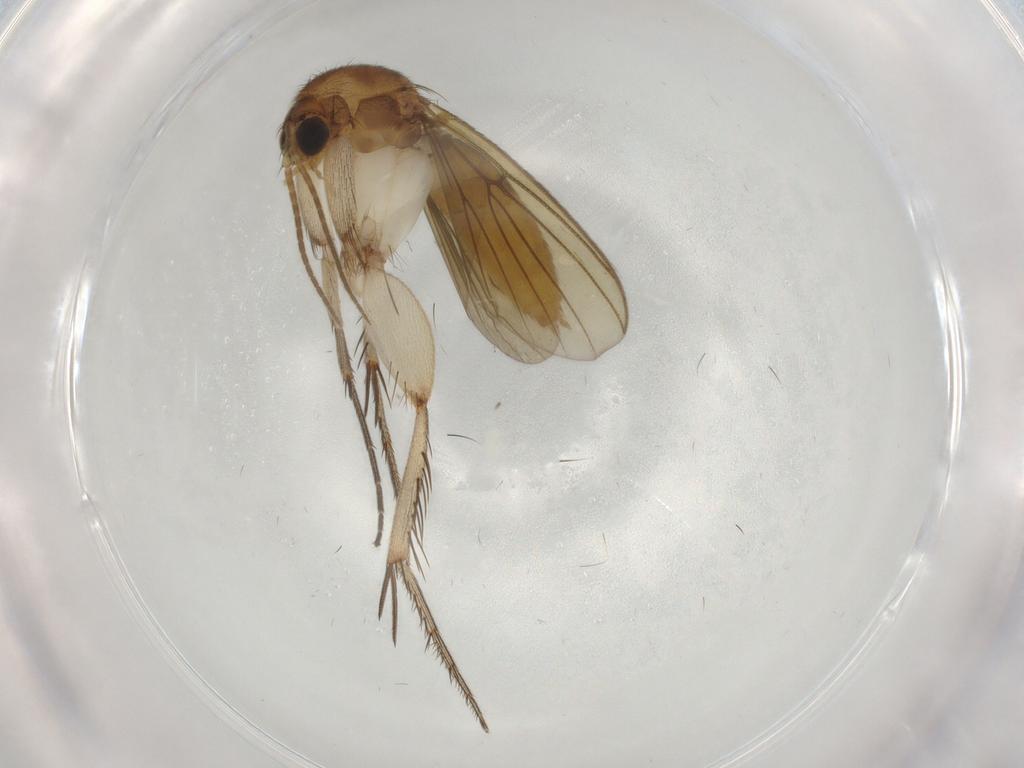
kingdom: Animalia
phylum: Arthropoda
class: Insecta
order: Diptera
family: Mycetophilidae
